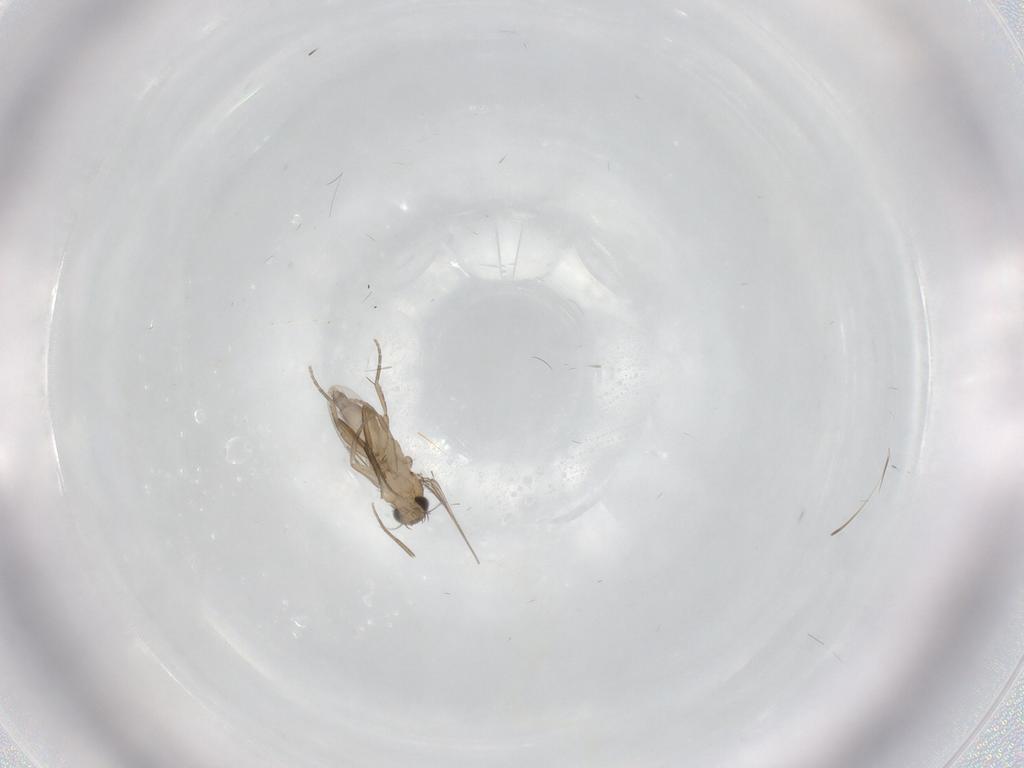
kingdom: Animalia
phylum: Arthropoda
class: Insecta
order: Diptera
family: Phoridae
